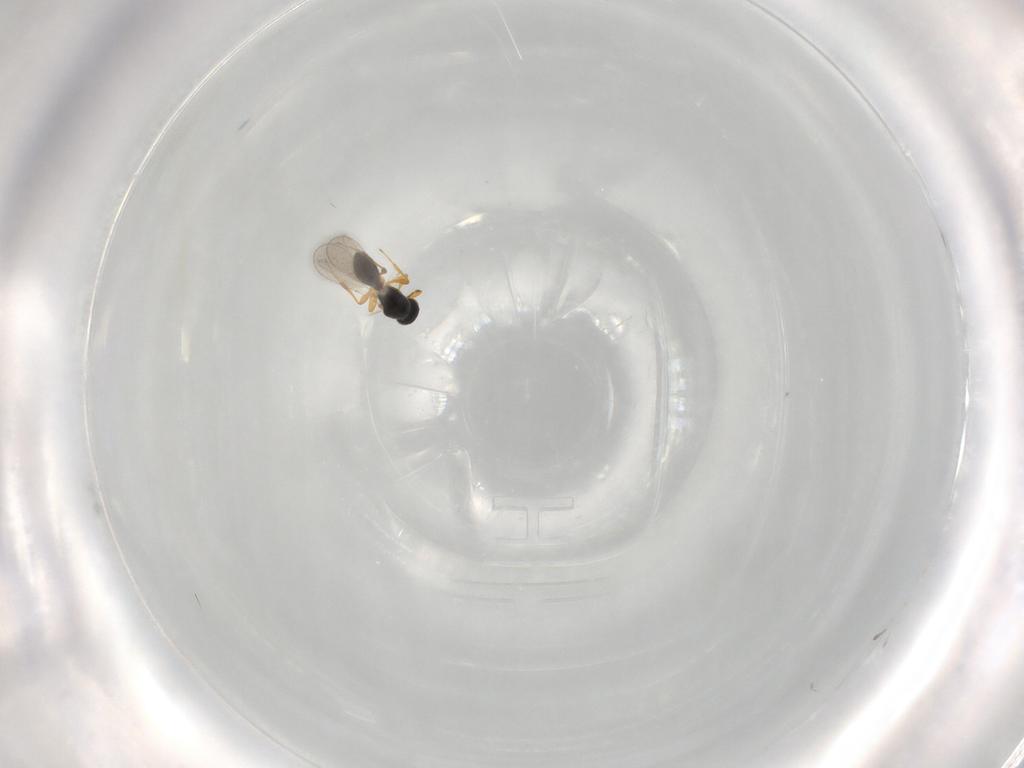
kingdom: Animalia
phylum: Arthropoda
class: Insecta
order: Hymenoptera
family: Platygastridae
